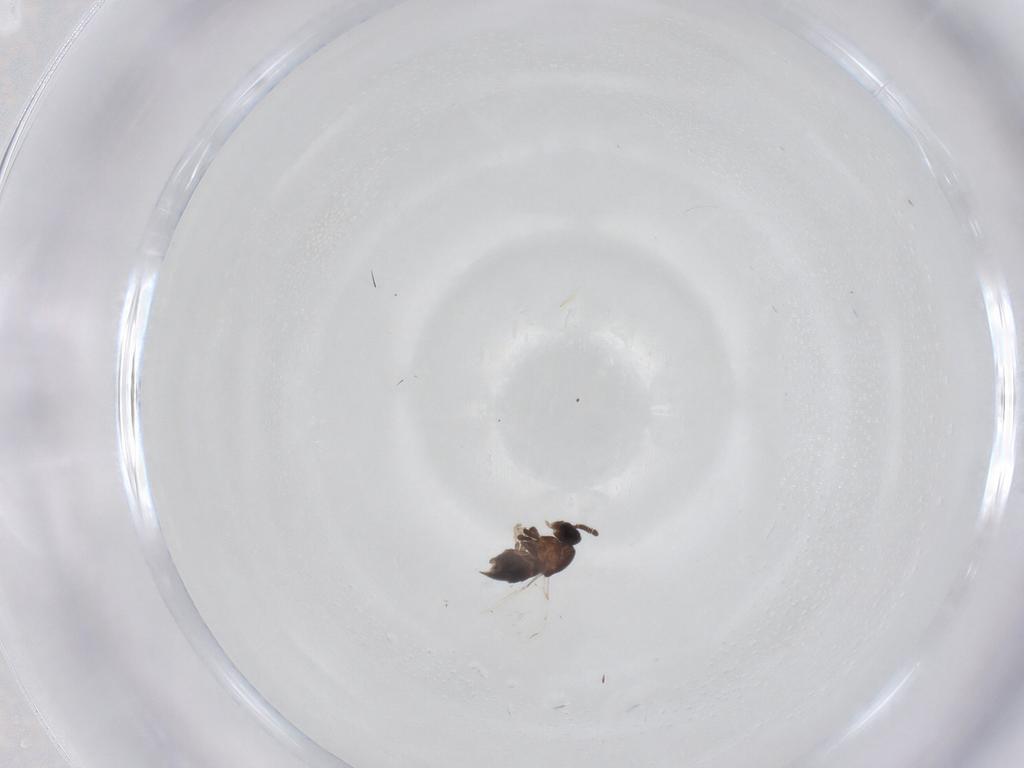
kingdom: Animalia
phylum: Arthropoda
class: Insecta
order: Diptera
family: Scatopsidae
